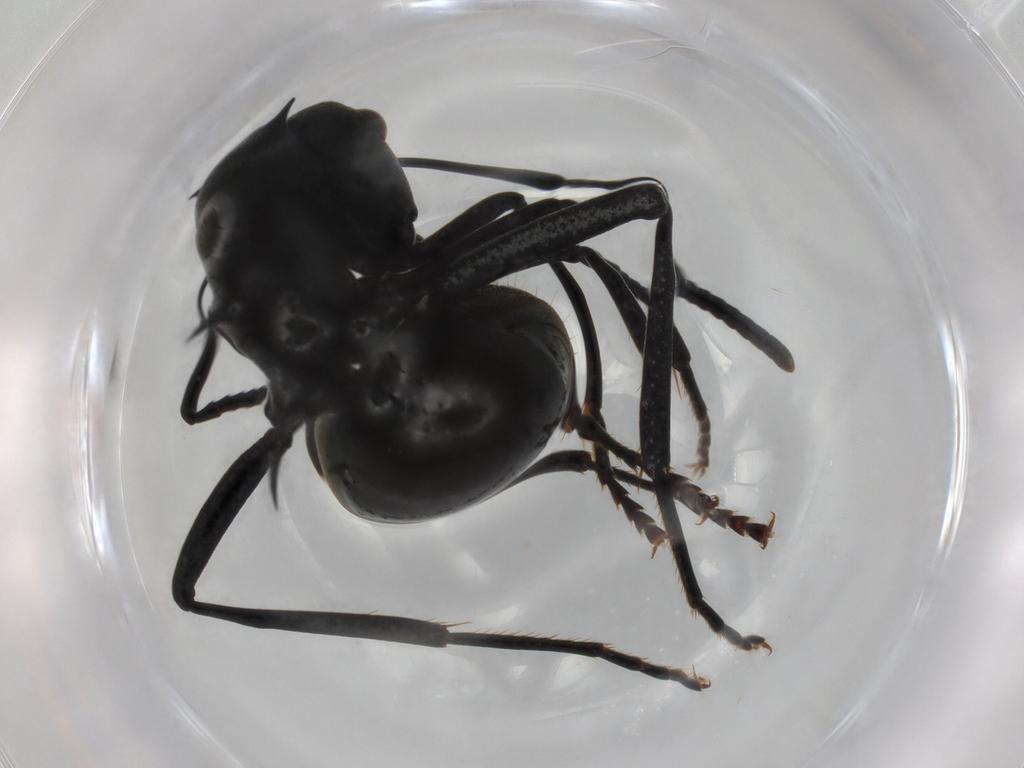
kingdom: Animalia
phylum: Arthropoda
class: Insecta
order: Hymenoptera
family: Formicidae
